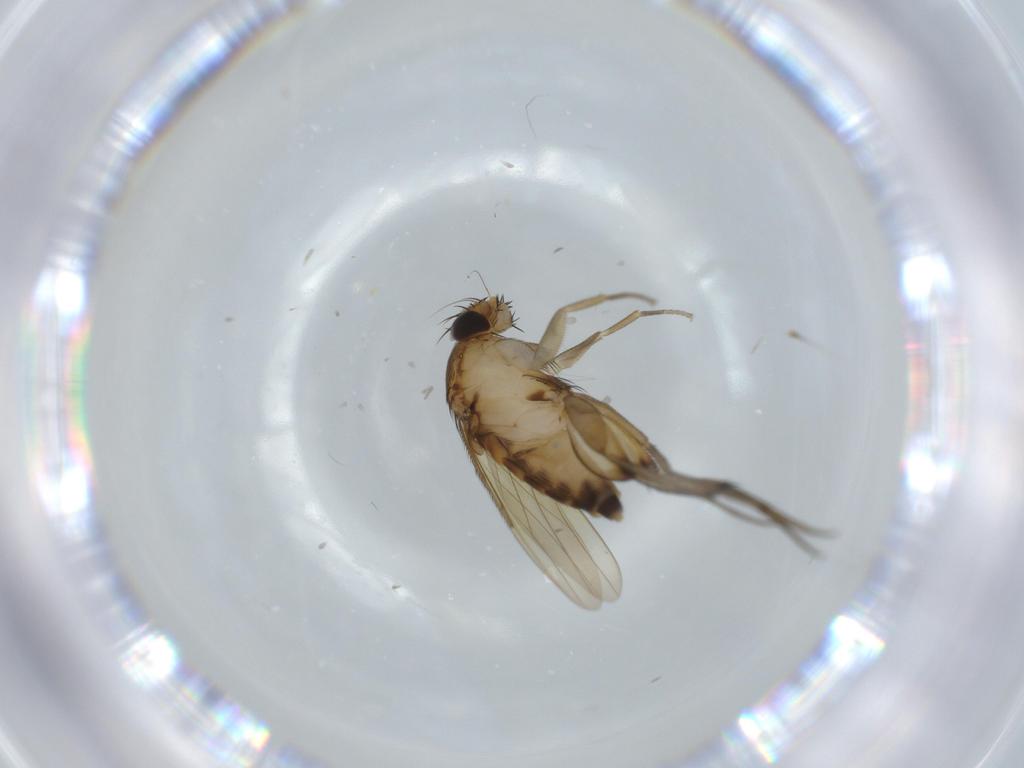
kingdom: Animalia
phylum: Arthropoda
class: Insecta
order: Diptera
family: Phoridae
